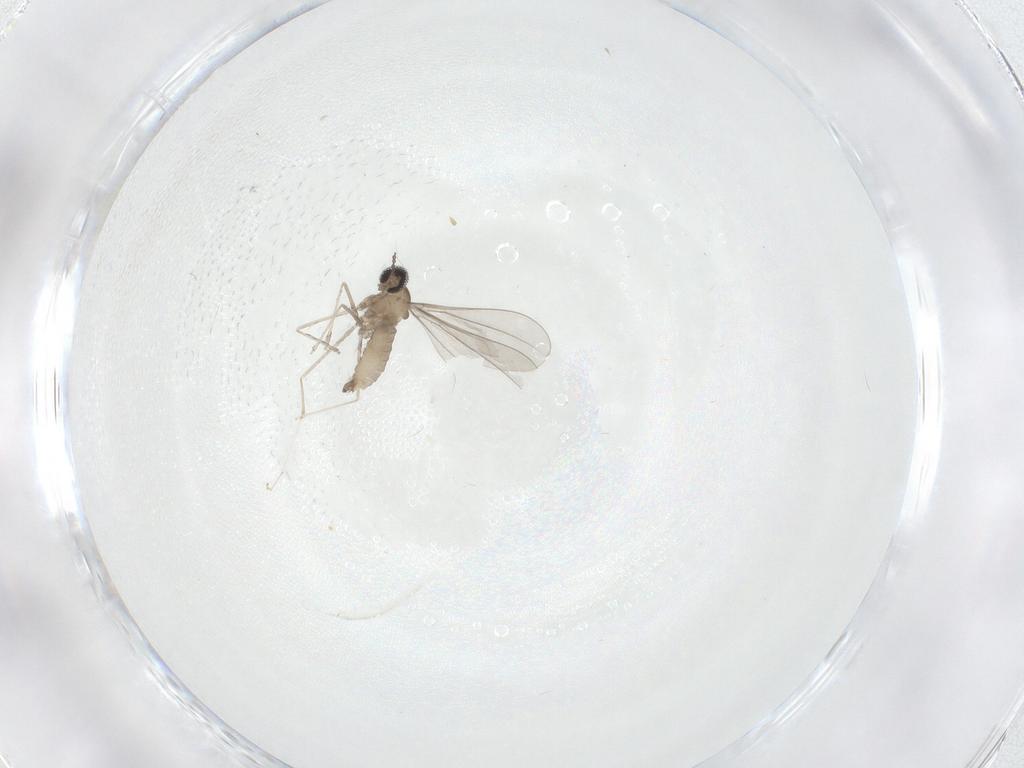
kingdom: Animalia
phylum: Arthropoda
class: Insecta
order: Diptera
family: Cecidomyiidae
